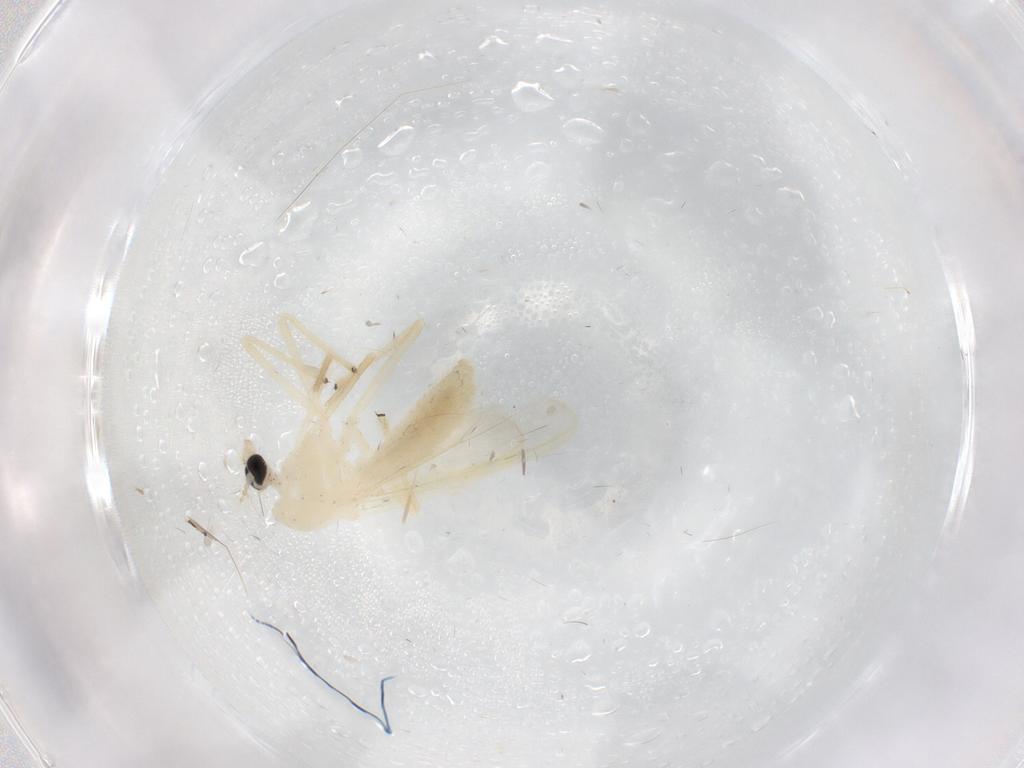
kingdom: Animalia
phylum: Arthropoda
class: Insecta
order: Diptera
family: Chironomidae
